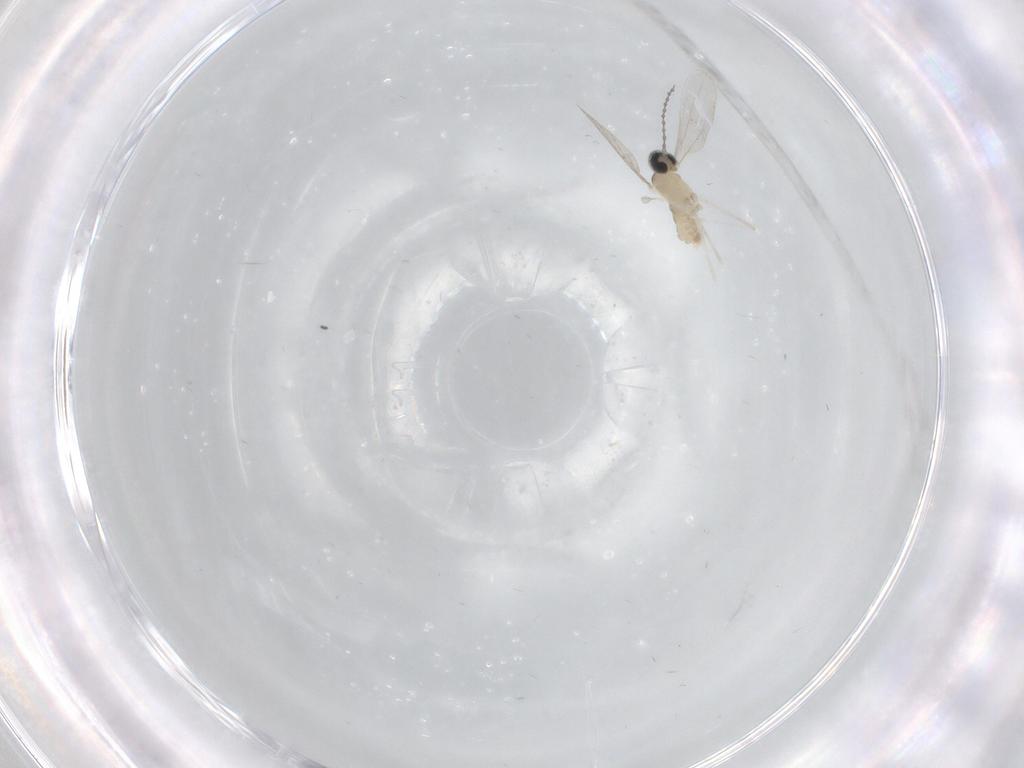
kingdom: Animalia
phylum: Arthropoda
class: Insecta
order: Diptera
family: Cecidomyiidae
